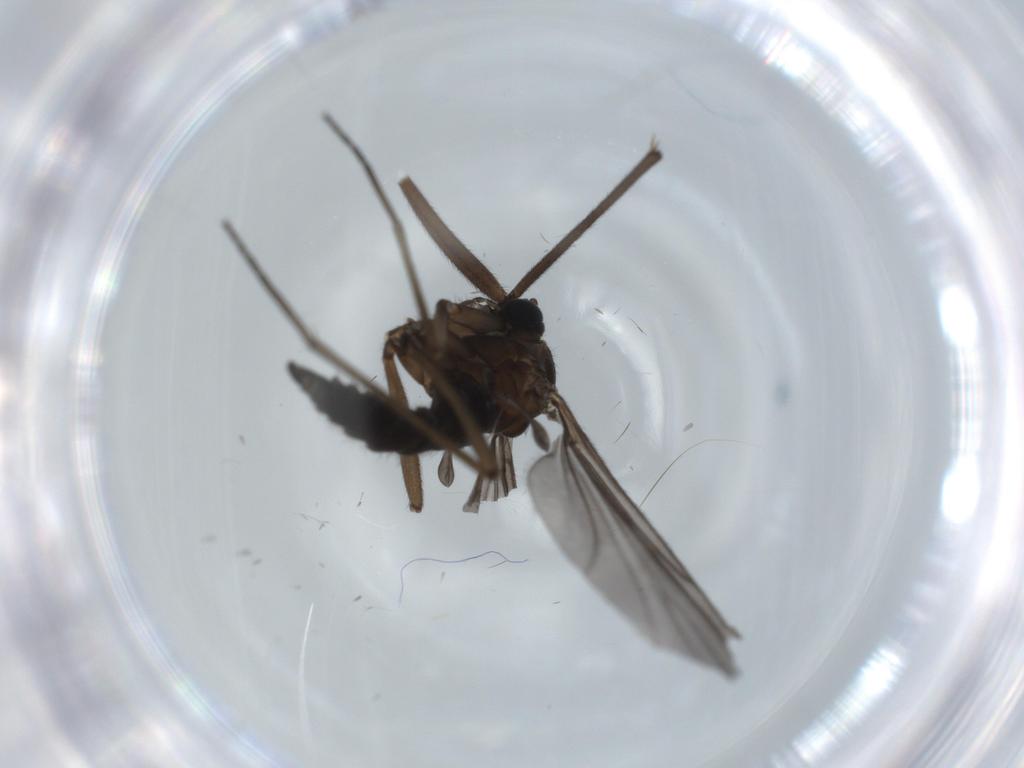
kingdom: Animalia
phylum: Arthropoda
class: Insecta
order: Diptera
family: Sciaridae
